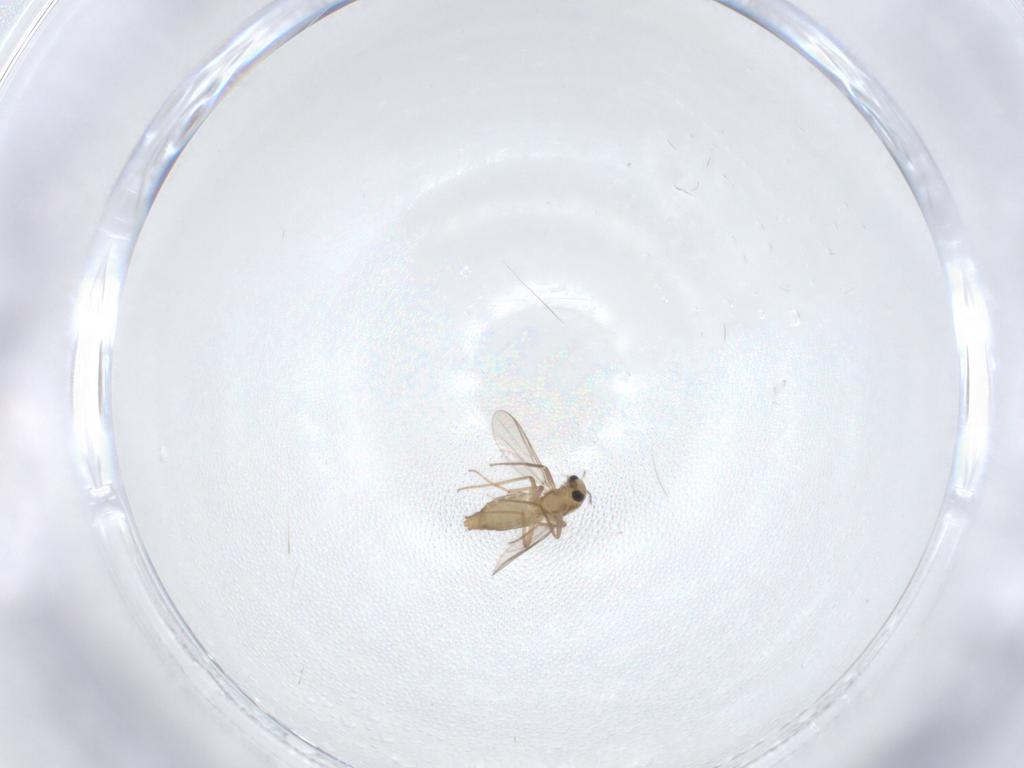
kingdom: Animalia
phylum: Arthropoda
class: Insecta
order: Diptera
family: Chironomidae
